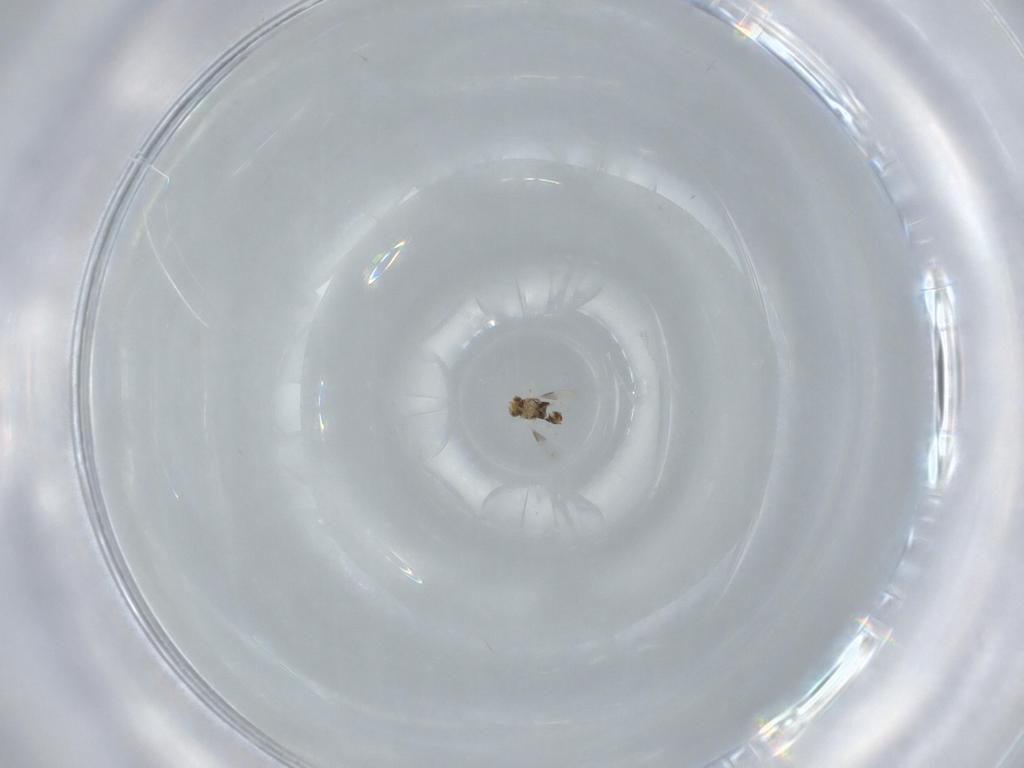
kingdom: Animalia
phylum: Arthropoda
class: Insecta
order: Hymenoptera
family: Aphelinidae
